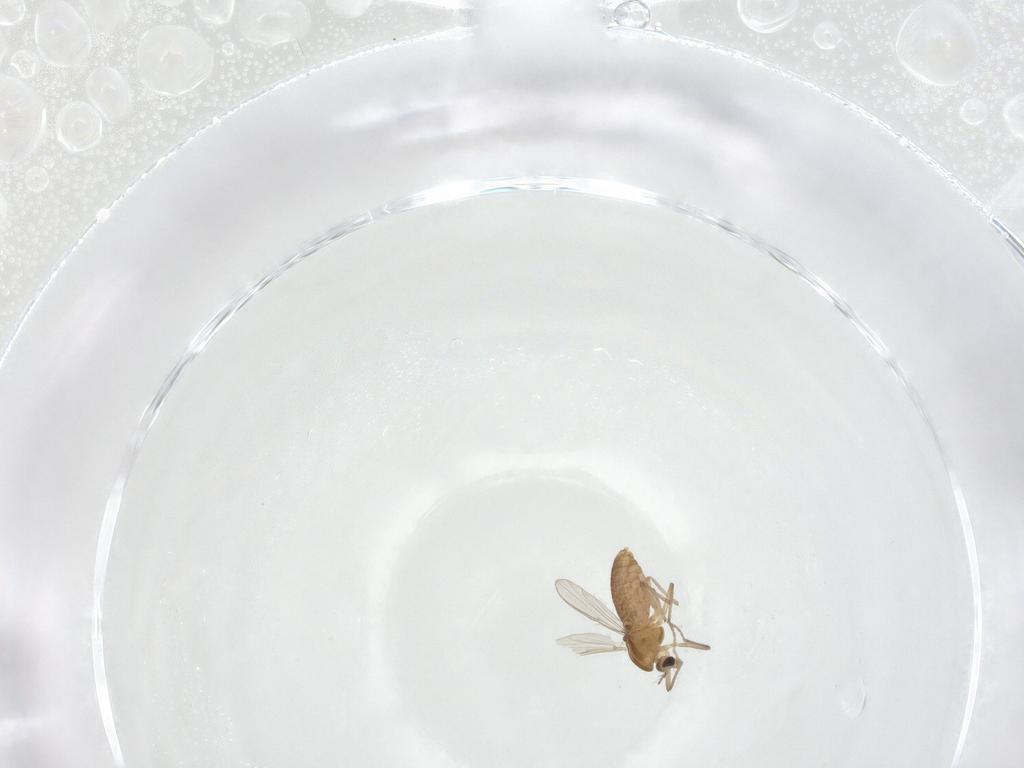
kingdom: Animalia
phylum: Arthropoda
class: Insecta
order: Diptera
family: Chironomidae
